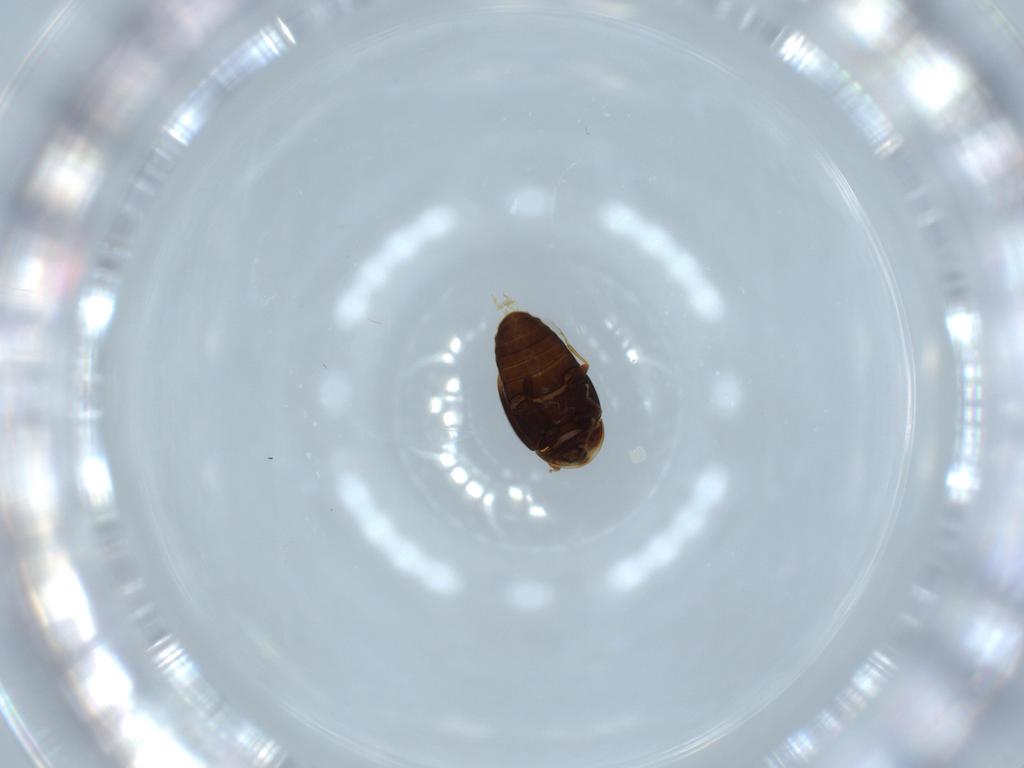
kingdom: Animalia
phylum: Arthropoda
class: Insecta
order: Coleoptera
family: Corylophidae
